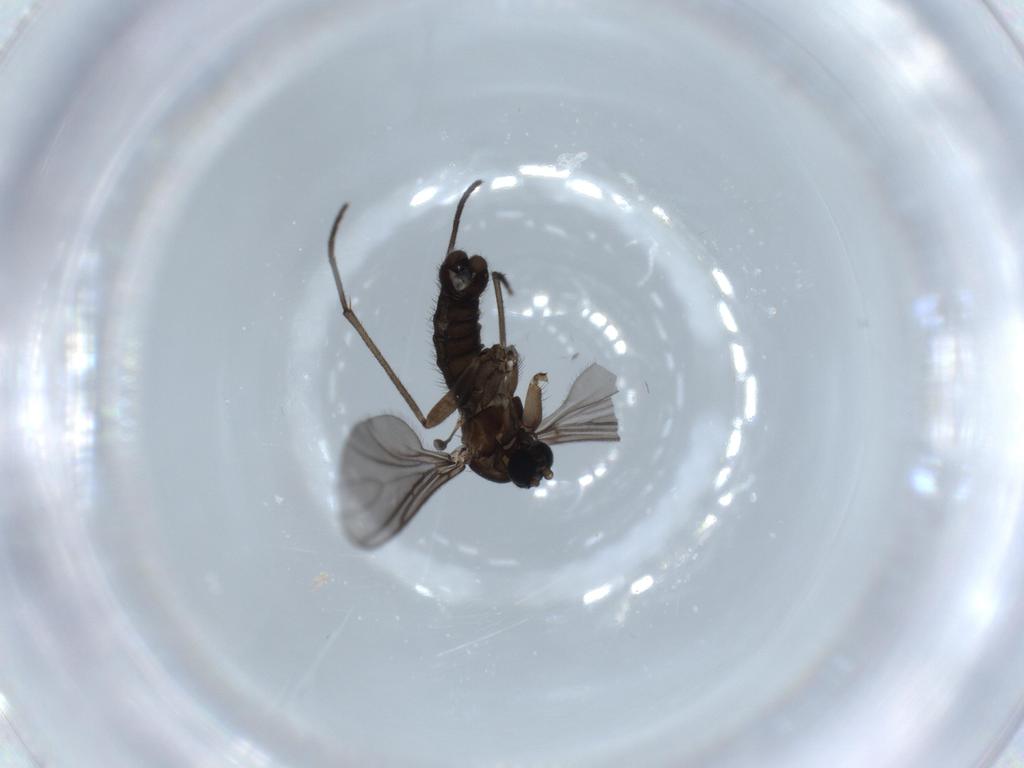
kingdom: Animalia
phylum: Arthropoda
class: Insecta
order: Diptera
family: Sciaridae
